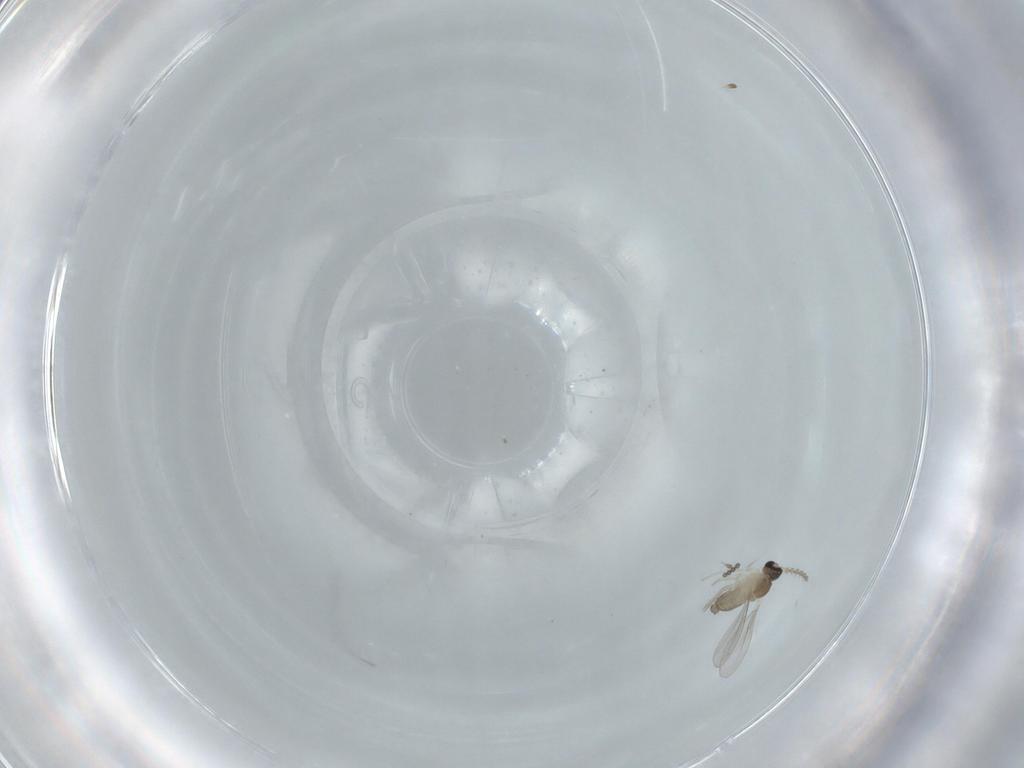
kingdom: Animalia
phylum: Arthropoda
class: Insecta
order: Diptera
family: Cecidomyiidae
